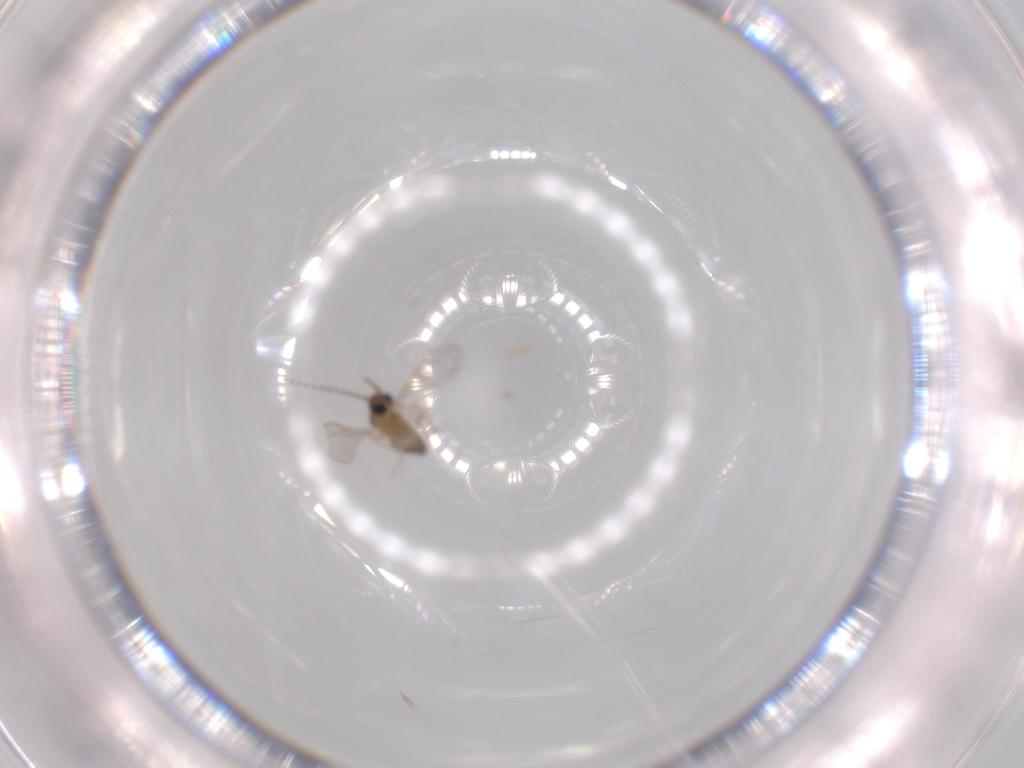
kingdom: Animalia
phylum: Arthropoda
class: Insecta
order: Diptera
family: Cecidomyiidae
